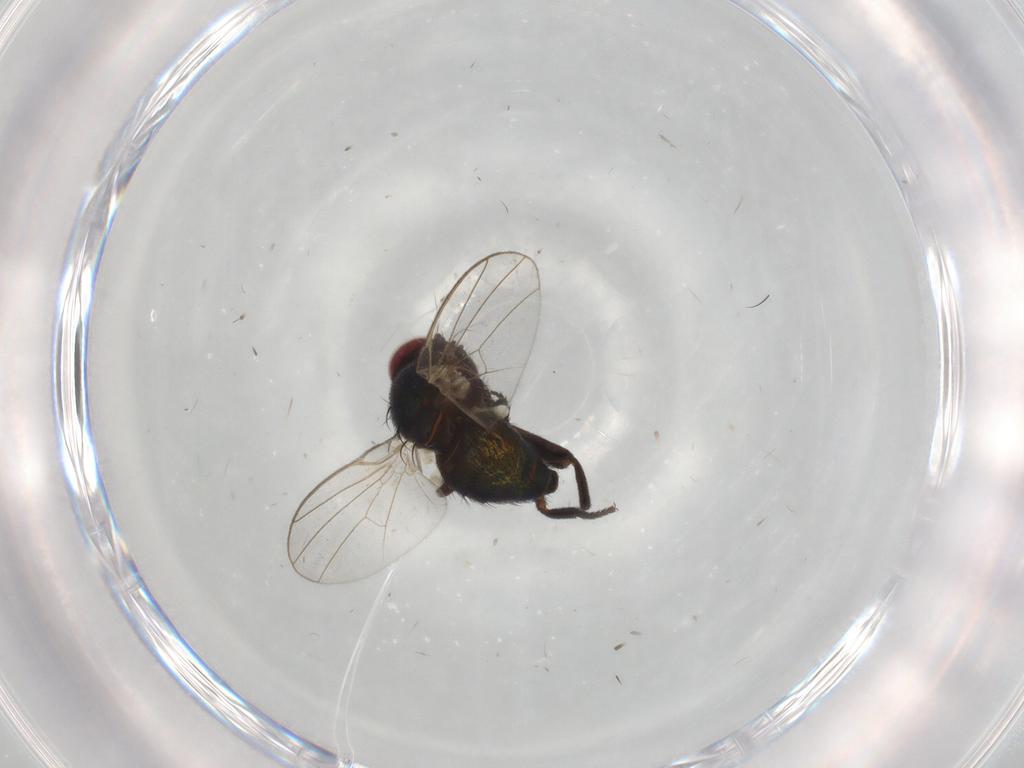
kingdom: Animalia
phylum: Arthropoda
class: Insecta
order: Diptera
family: Agromyzidae
